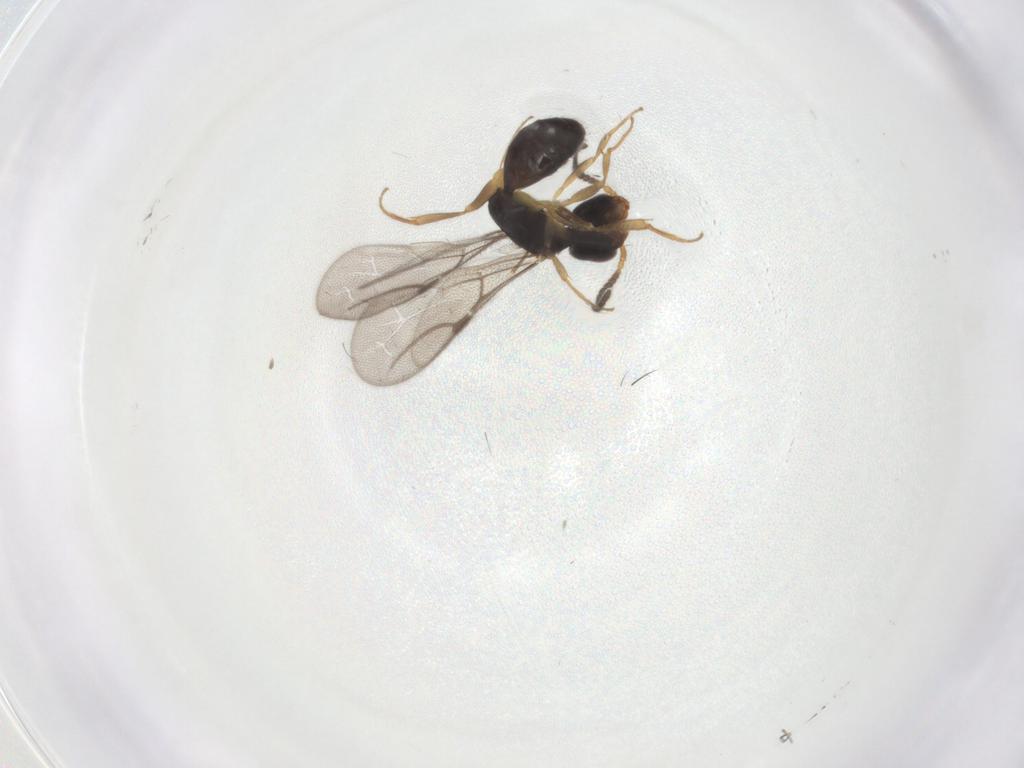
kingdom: Animalia
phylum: Arthropoda
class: Insecta
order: Hymenoptera
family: Bethylidae
